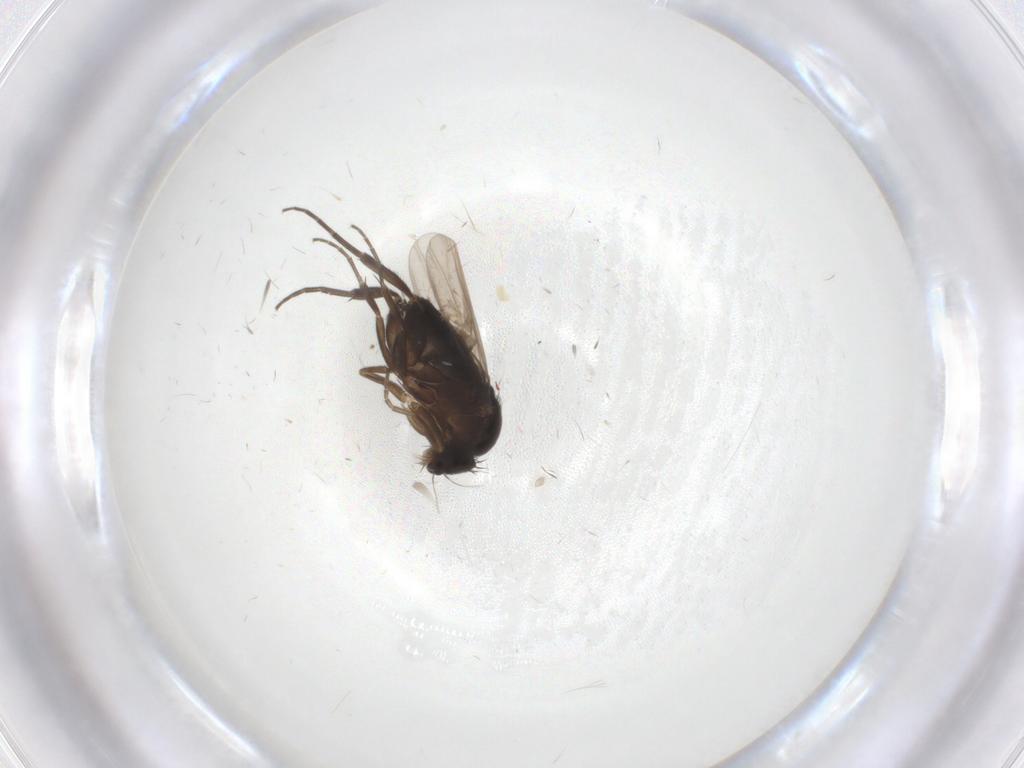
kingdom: Animalia
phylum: Arthropoda
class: Insecta
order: Diptera
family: Phoridae
